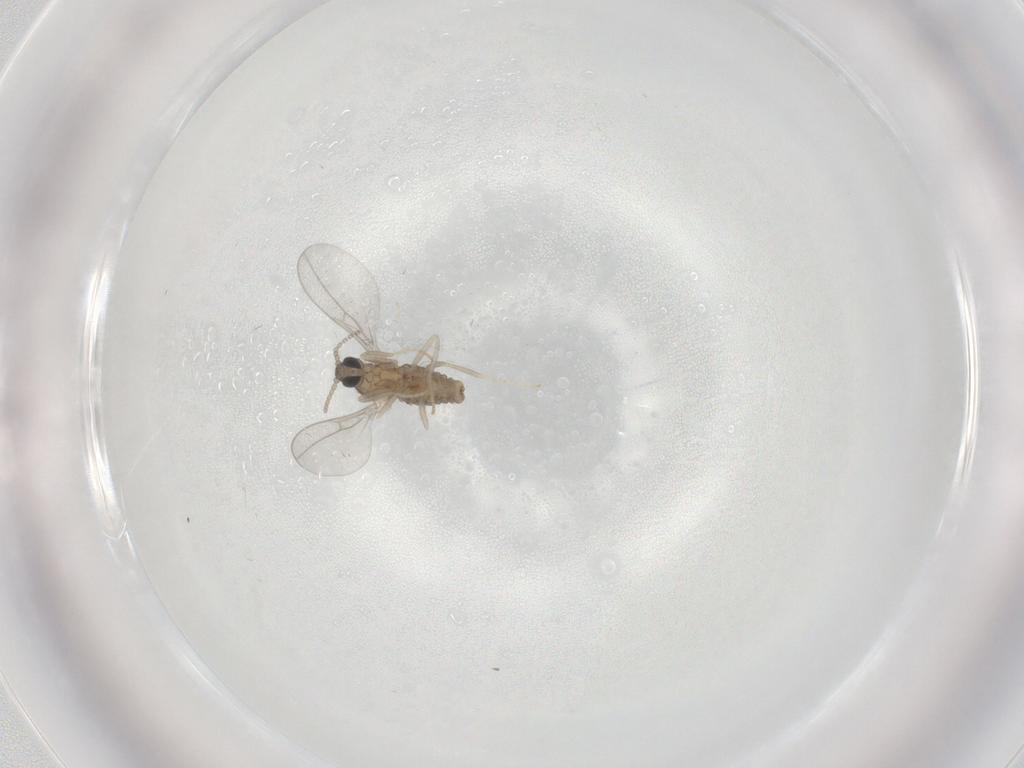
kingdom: Animalia
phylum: Arthropoda
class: Insecta
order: Diptera
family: Cecidomyiidae
